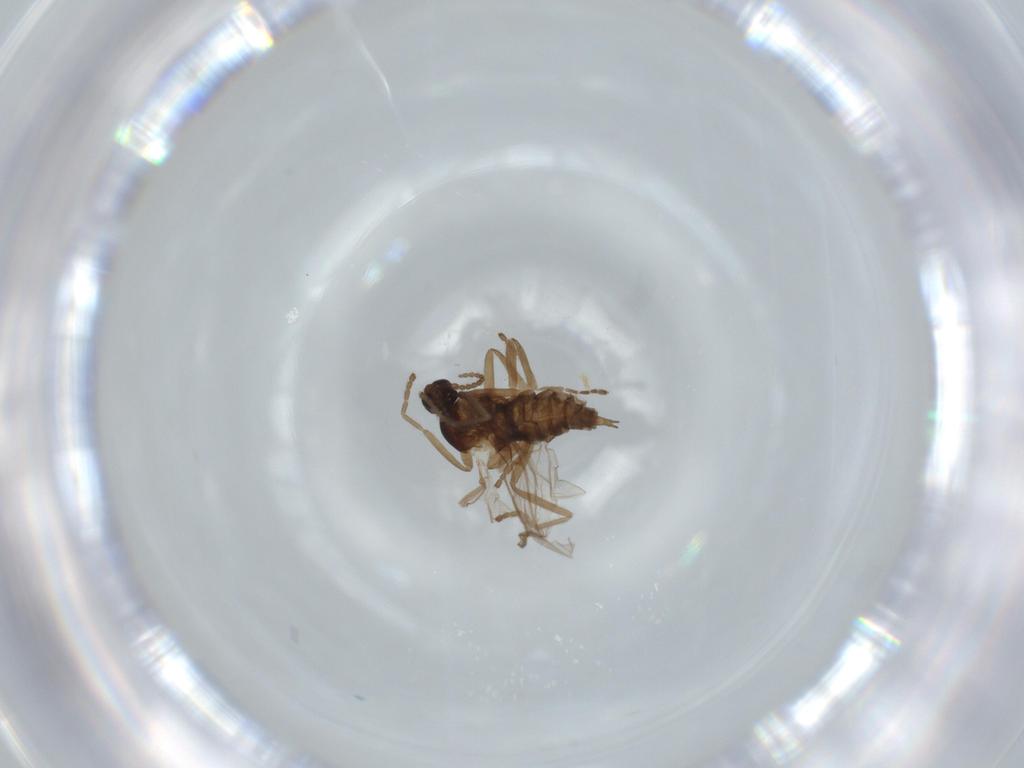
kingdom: Animalia
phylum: Arthropoda
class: Insecta
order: Diptera
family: Cecidomyiidae
